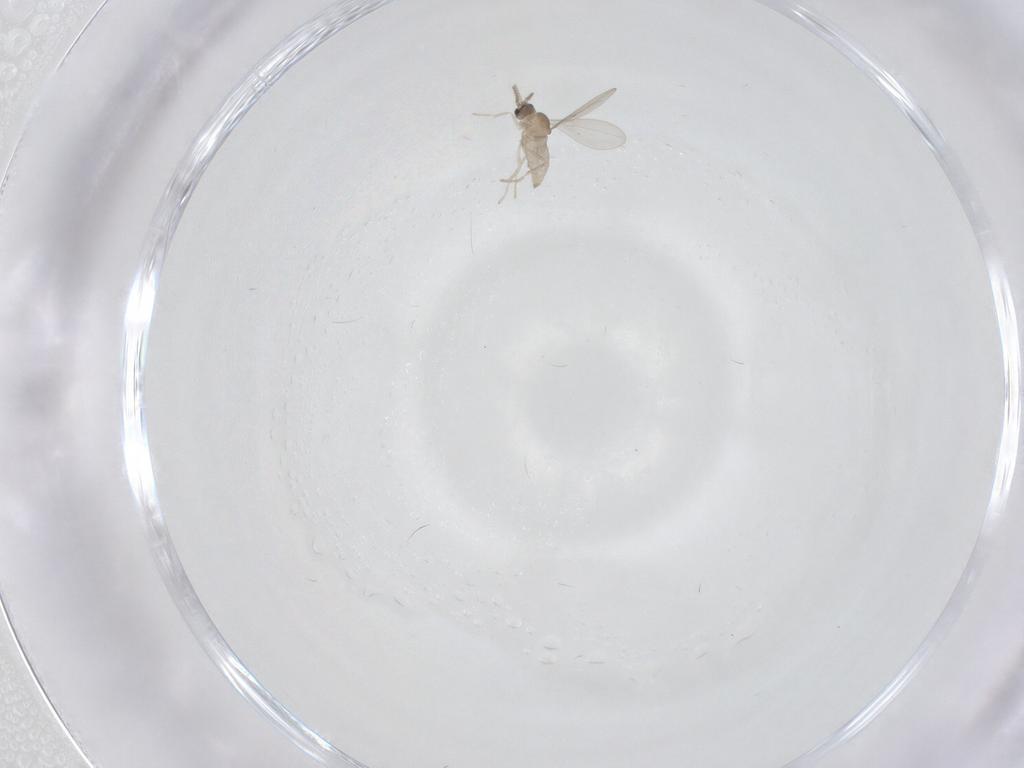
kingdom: Animalia
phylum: Arthropoda
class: Insecta
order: Diptera
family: Cecidomyiidae
